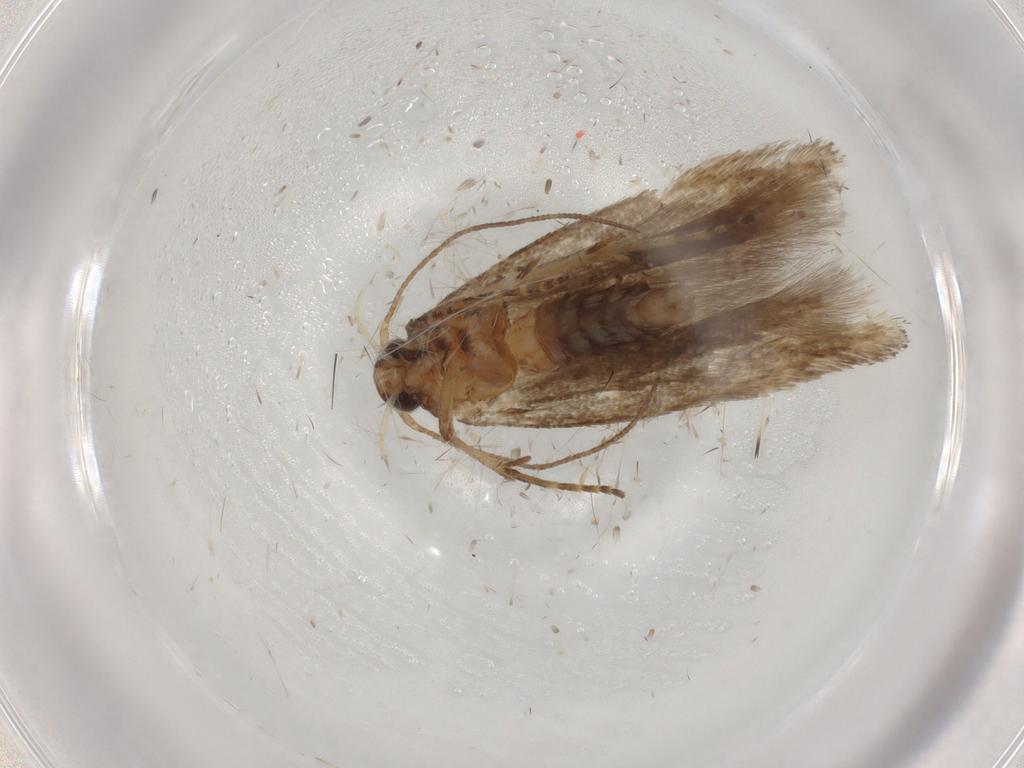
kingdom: Animalia
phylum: Arthropoda
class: Insecta
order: Lepidoptera
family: Gelechiidae
